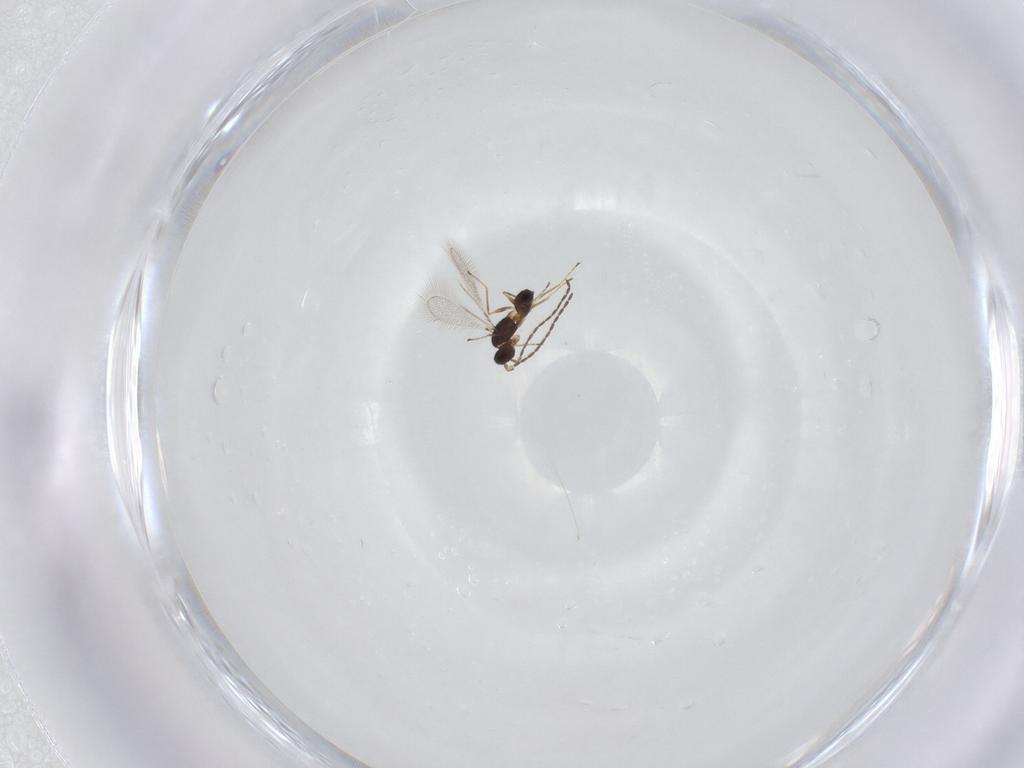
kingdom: Animalia
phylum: Arthropoda
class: Insecta
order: Hymenoptera
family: Mymaridae
